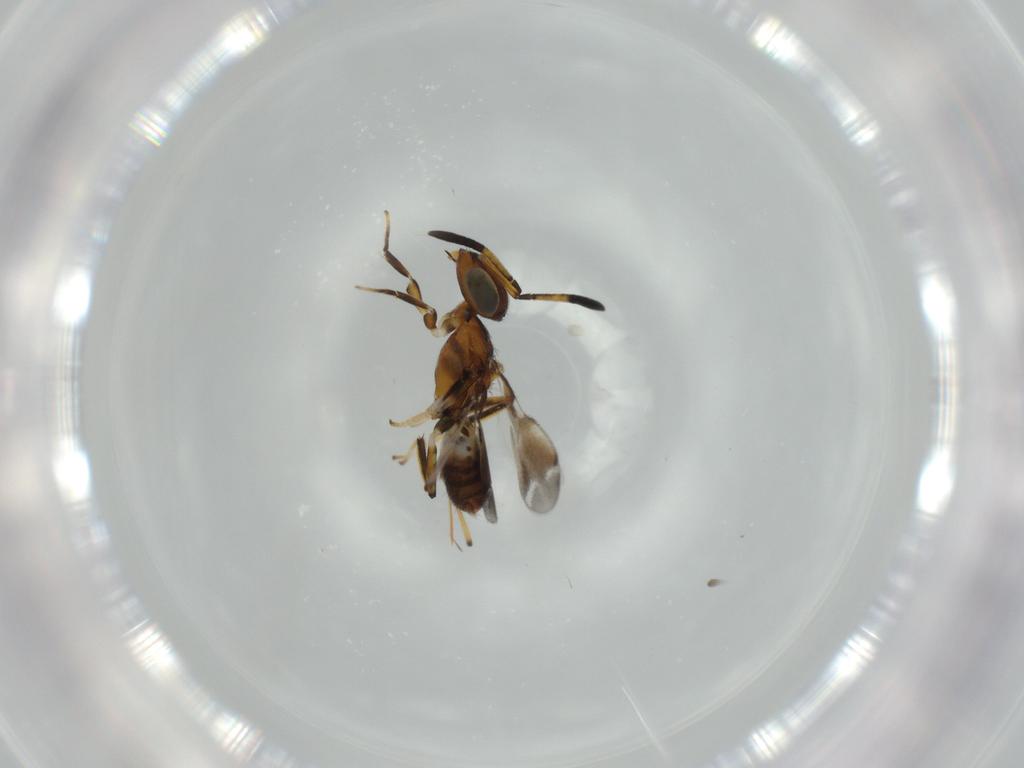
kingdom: Animalia
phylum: Arthropoda
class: Insecta
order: Hymenoptera
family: Eupelmidae
